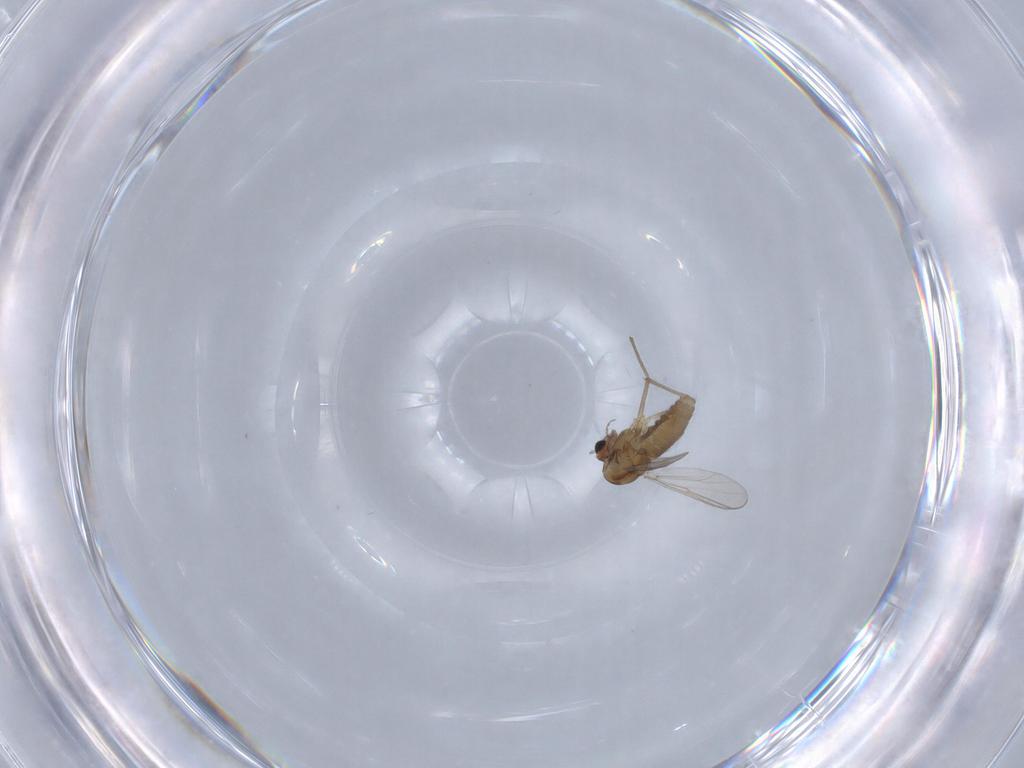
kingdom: Animalia
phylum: Arthropoda
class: Insecta
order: Diptera
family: Chironomidae
